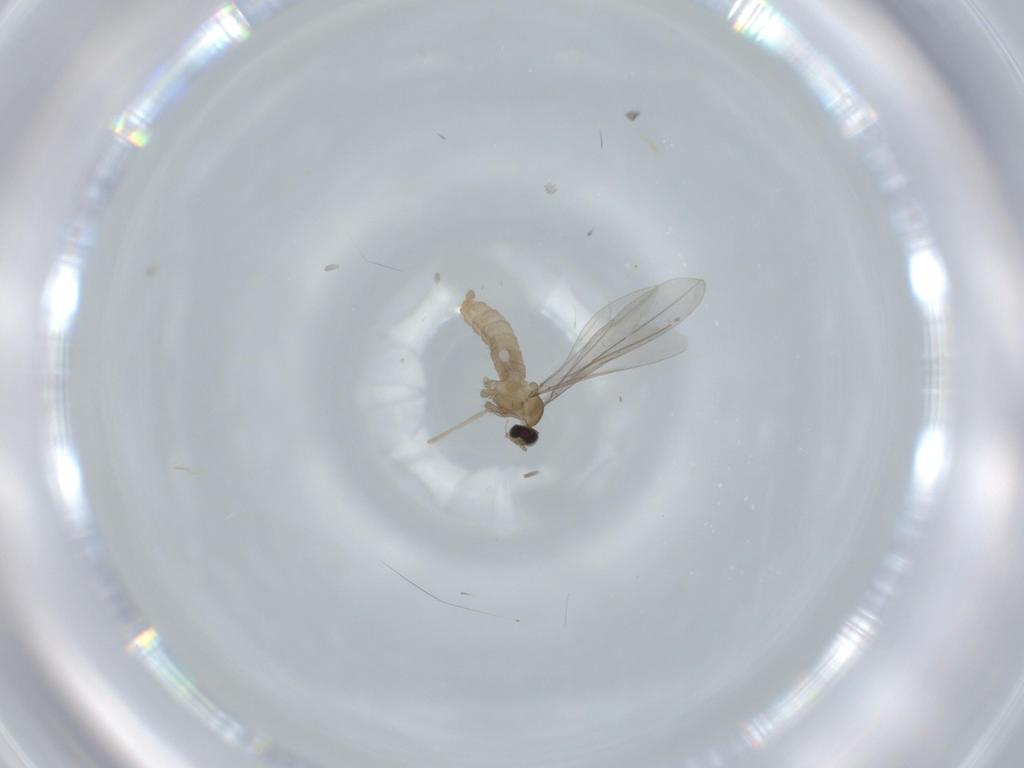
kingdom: Animalia
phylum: Arthropoda
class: Insecta
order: Diptera
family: Cecidomyiidae
